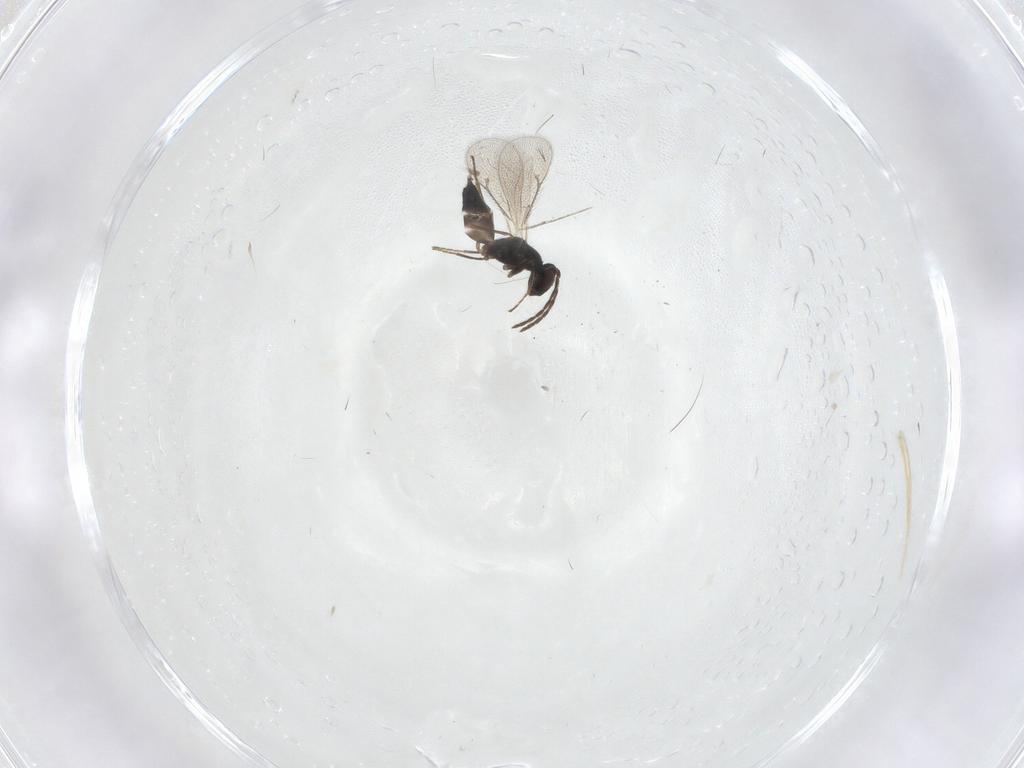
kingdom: Animalia
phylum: Arthropoda
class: Insecta
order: Hymenoptera
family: Eulophidae
